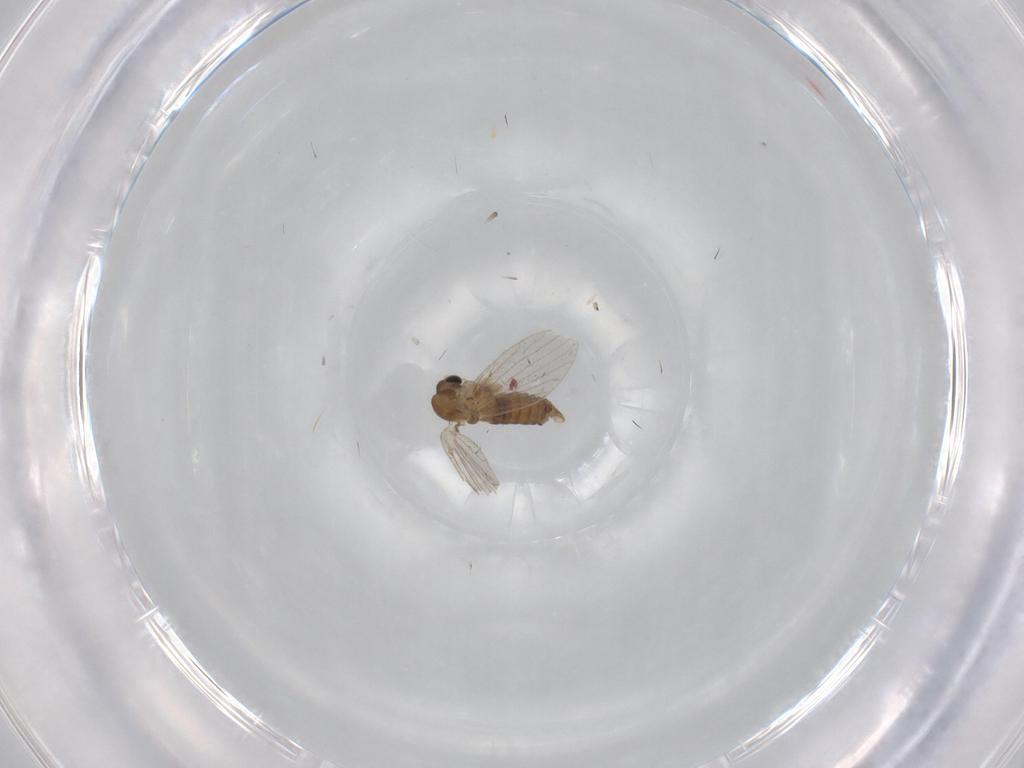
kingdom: Animalia
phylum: Arthropoda
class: Insecta
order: Diptera
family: Psychodidae
